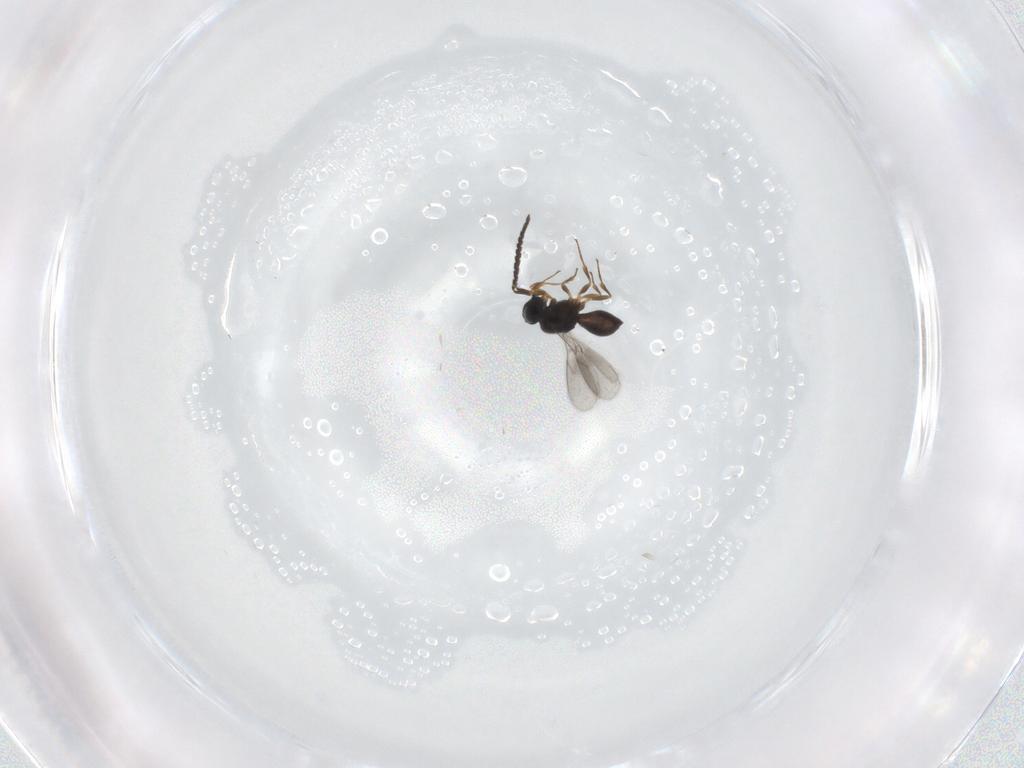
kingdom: Animalia
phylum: Arthropoda
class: Insecta
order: Hymenoptera
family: Scelionidae
